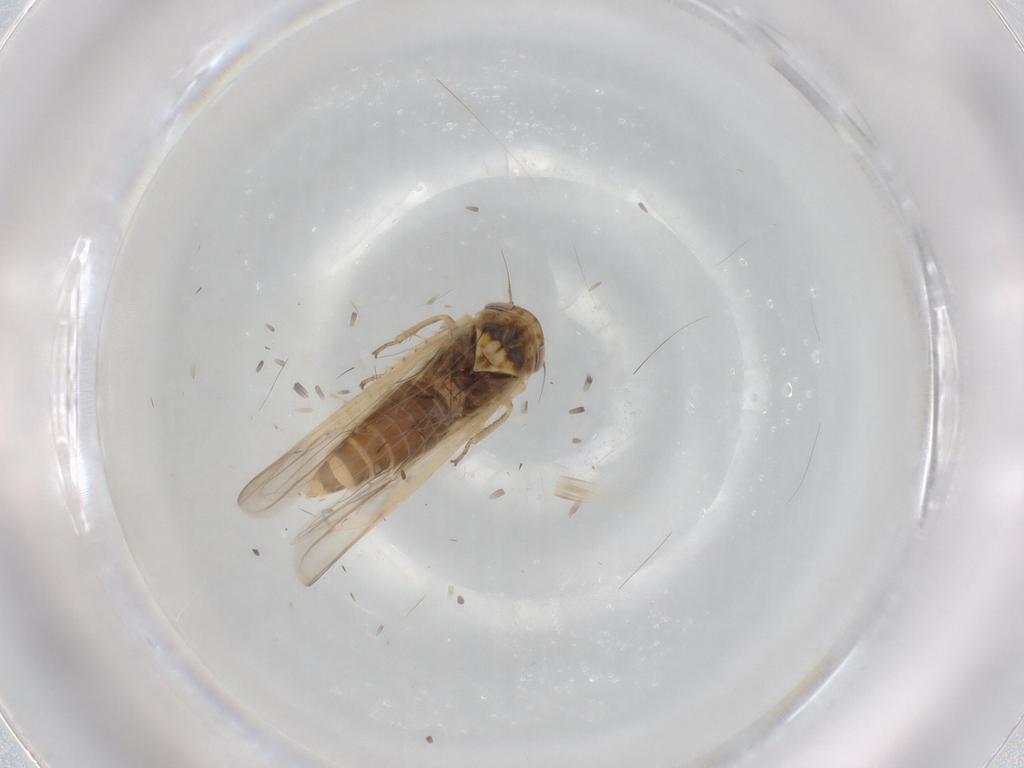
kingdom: Animalia
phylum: Arthropoda
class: Insecta
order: Hemiptera
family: Cicadellidae
